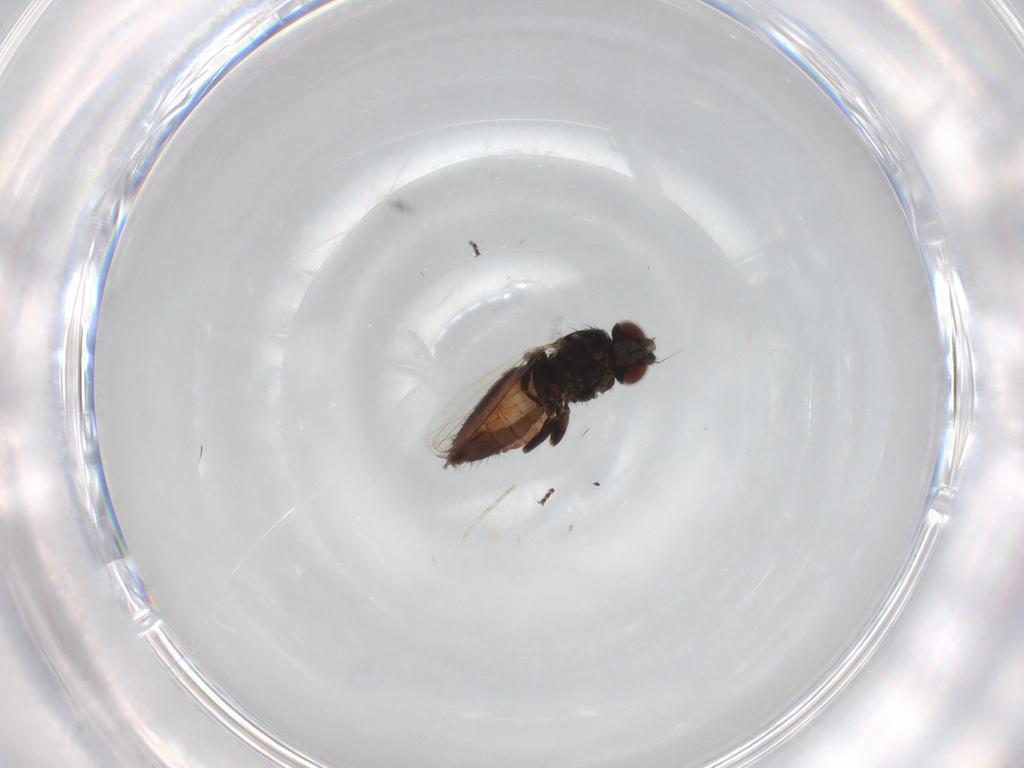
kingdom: Animalia
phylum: Arthropoda
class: Insecta
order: Diptera
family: Milichiidae
